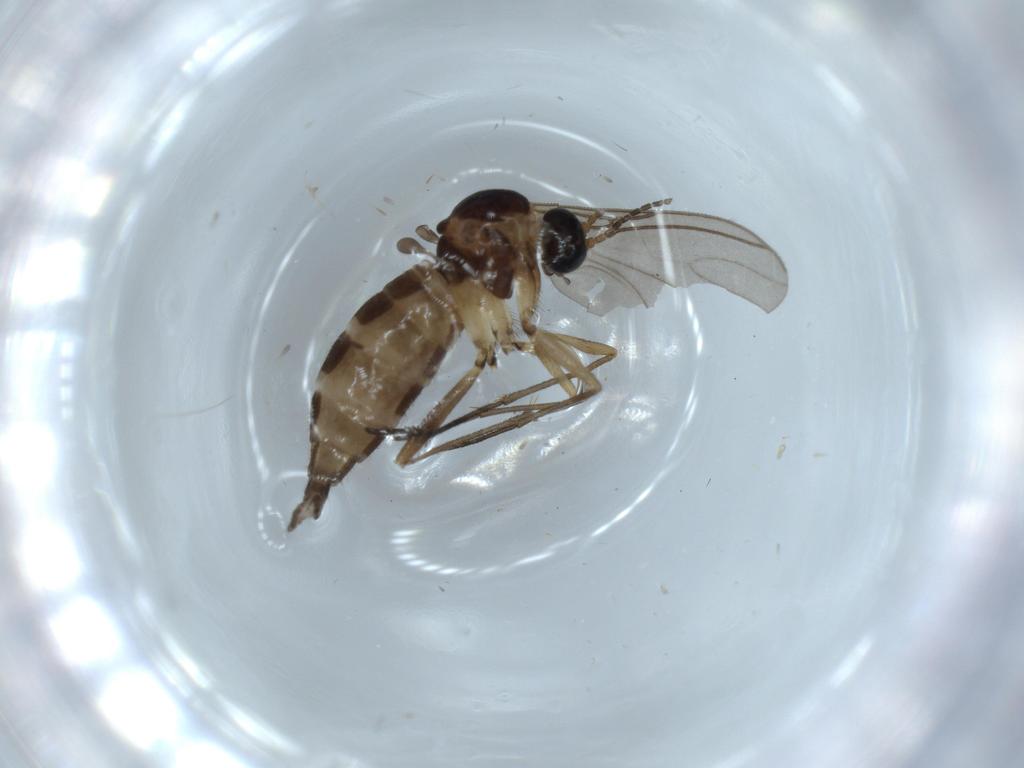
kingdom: Animalia
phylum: Arthropoda
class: Insecta
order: Diptera
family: Sciaridae
